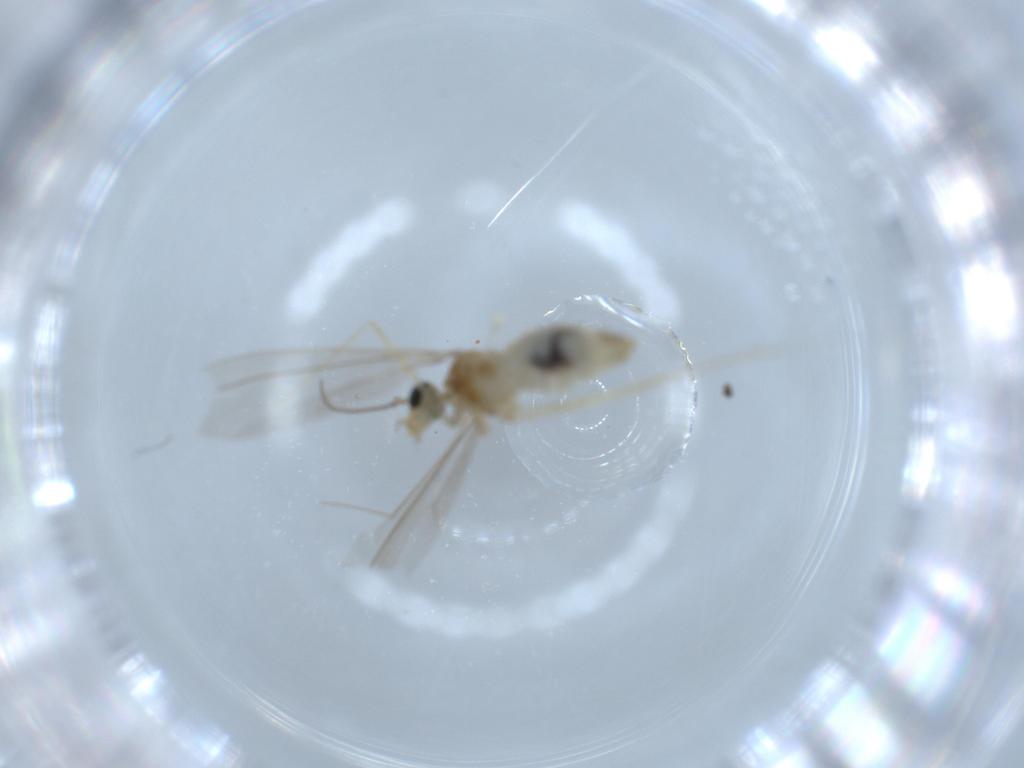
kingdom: Animalia
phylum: Arthropoda
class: Insecta
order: Diptera
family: Cecidomyiidae
